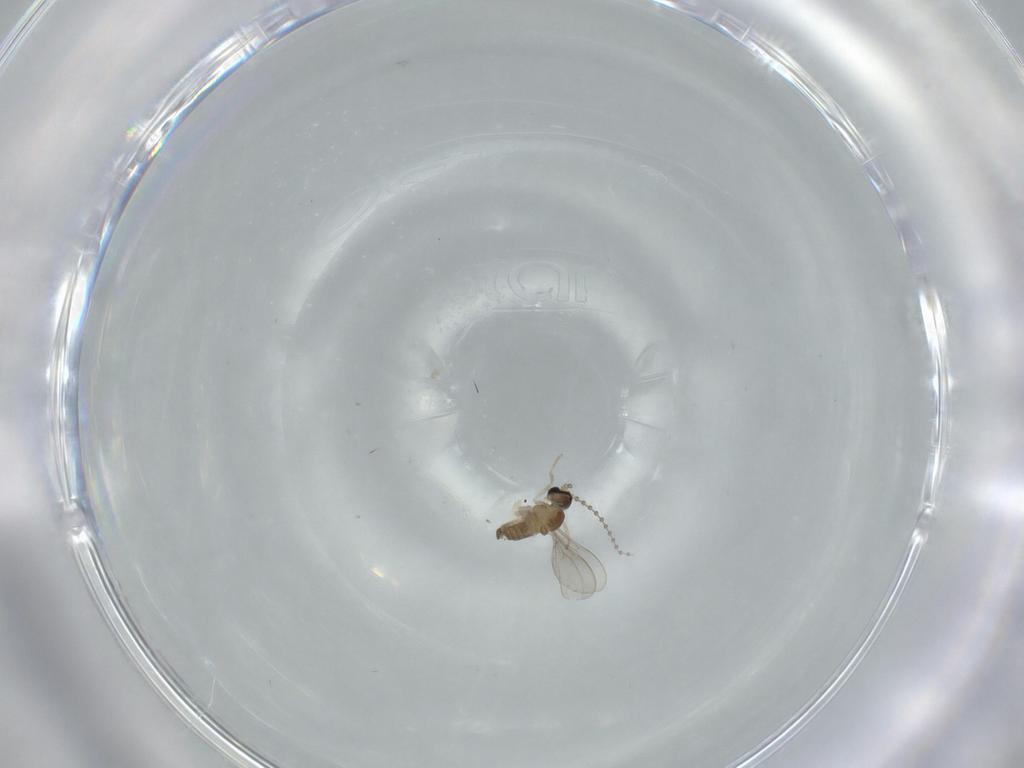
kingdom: Animalia
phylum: Arthropoda
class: Insecta
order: Diptera
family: Cecidomyiidae
